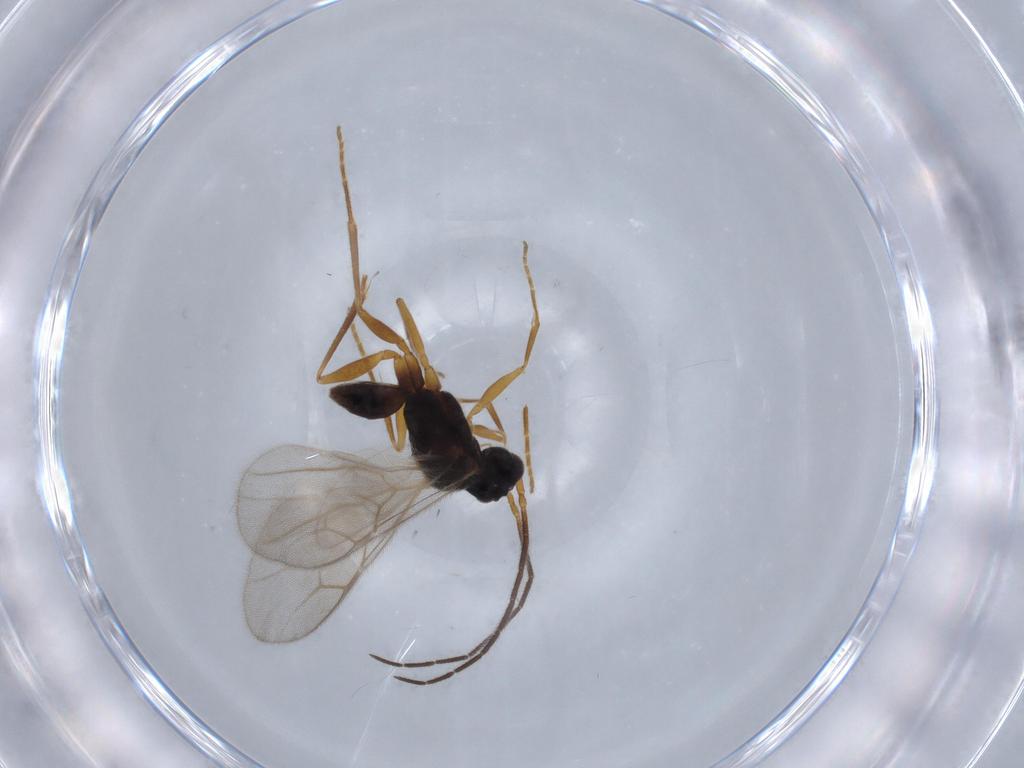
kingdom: Animalia
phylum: Arthropoda
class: Insecta
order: Hymenoptera
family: Dryinidae
